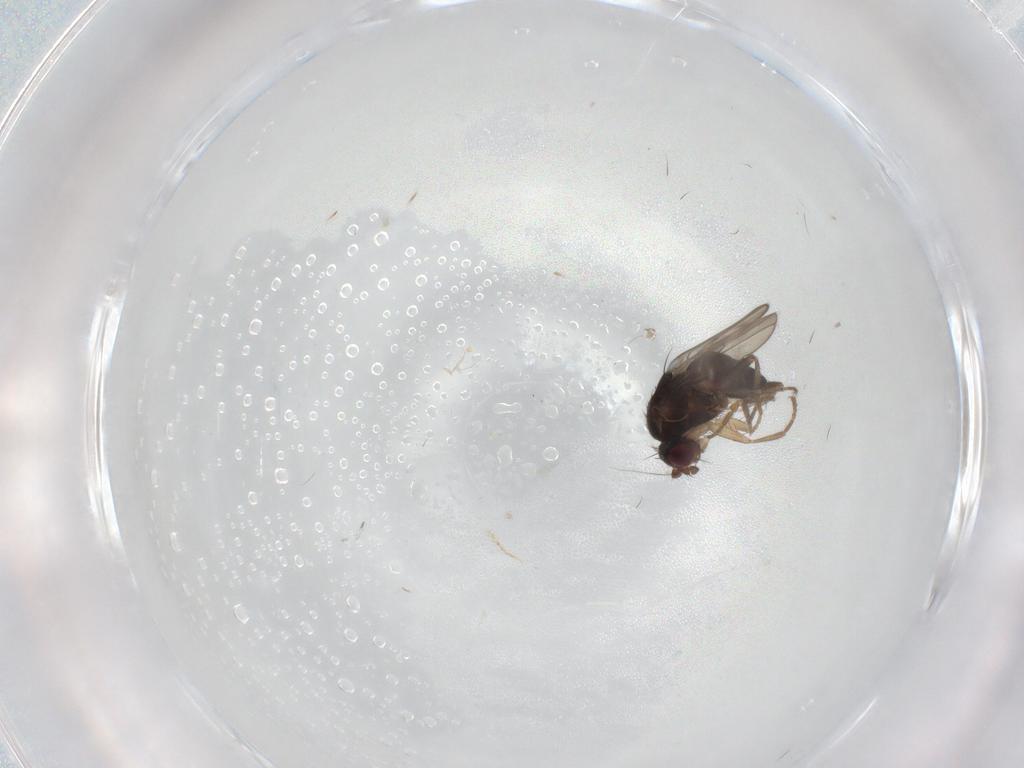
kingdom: Animalia
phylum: Arthropoda
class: Insecta
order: Diptera
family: Sphaeroceridae
